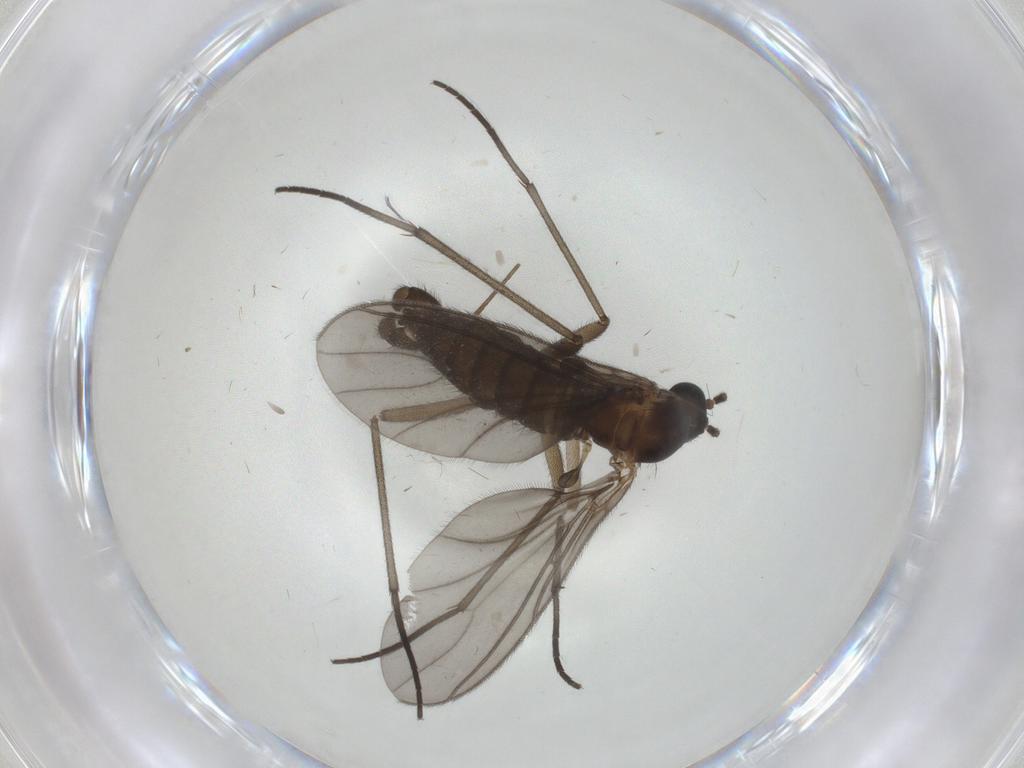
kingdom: Animalia
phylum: Arthropoda
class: Insecta
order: Diptera
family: Sciaridae
